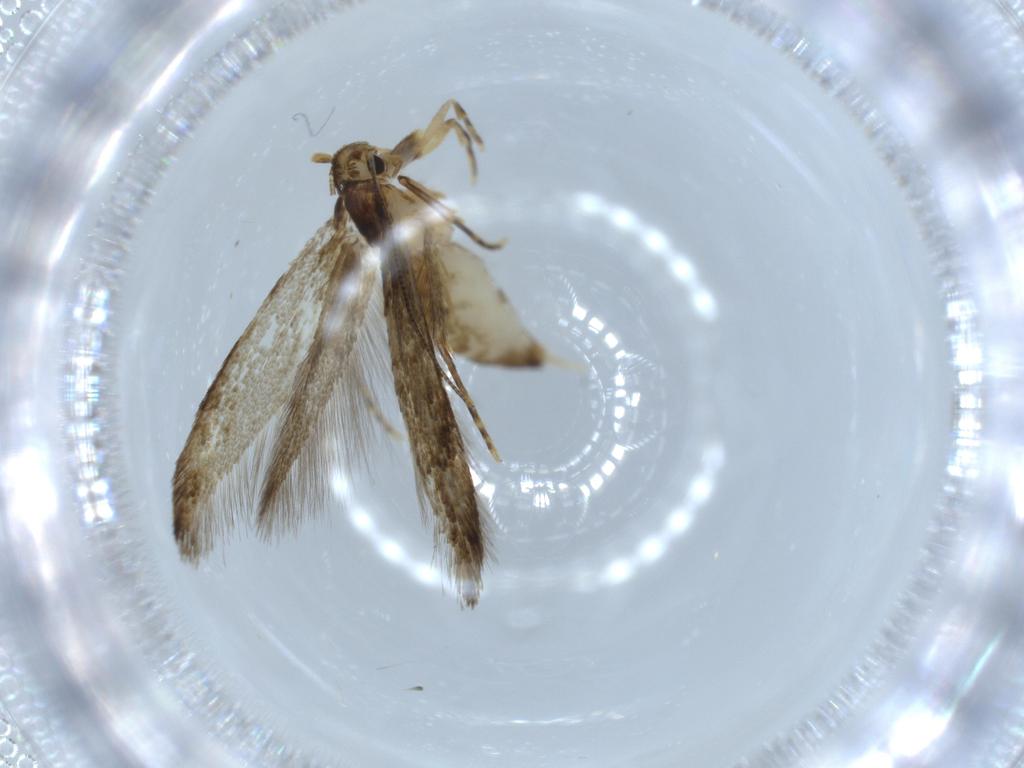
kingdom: Animalia
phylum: Arthropoda
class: Insecta
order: Lepidoptera
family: Tineidae
